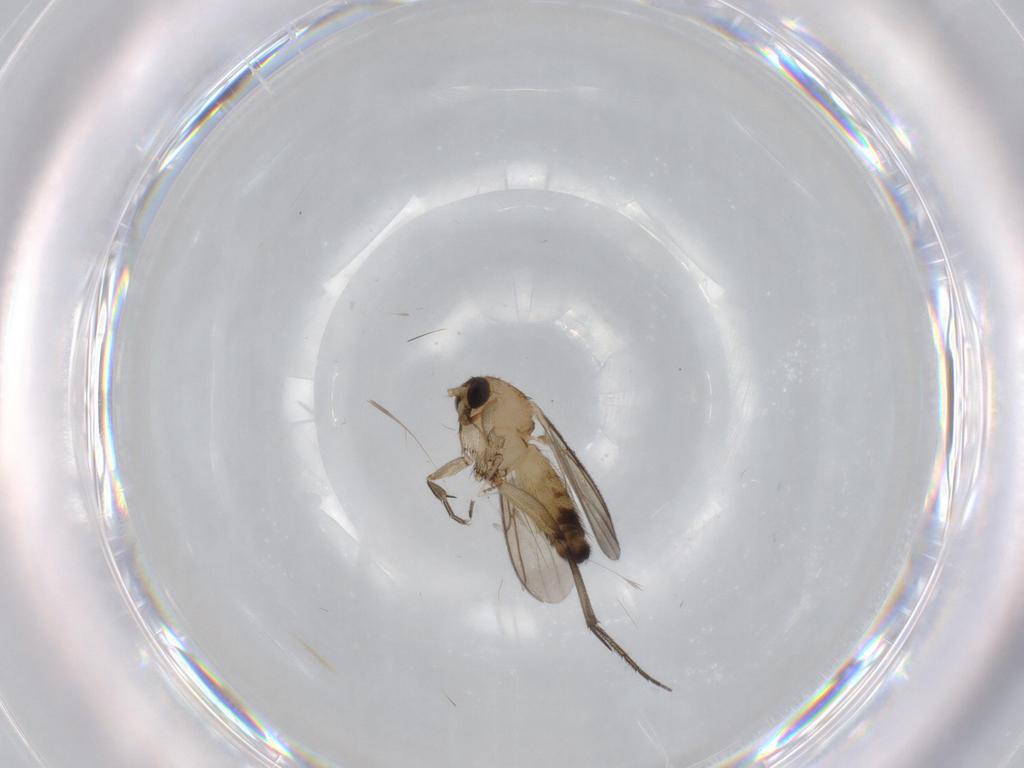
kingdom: Animalia
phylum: Arthropoda
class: Insecta
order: Diptera
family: Mycetophilidae
